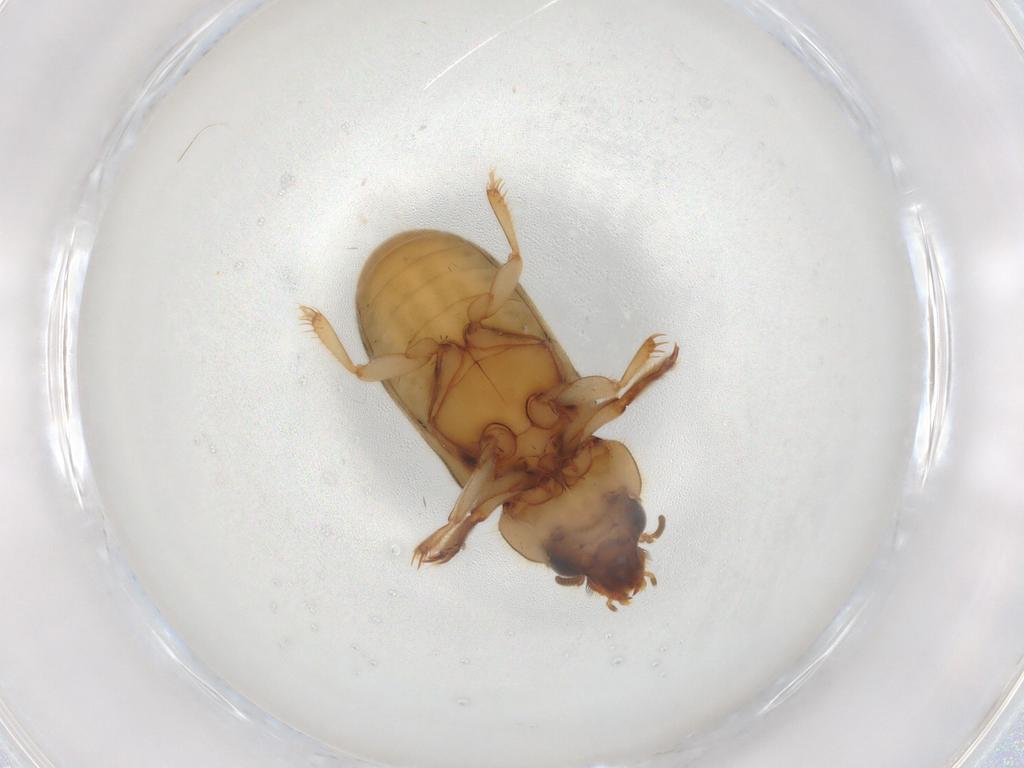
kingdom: Animalia
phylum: Arthropoda
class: Insecta
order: Coleoptera
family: Heteroceridae
